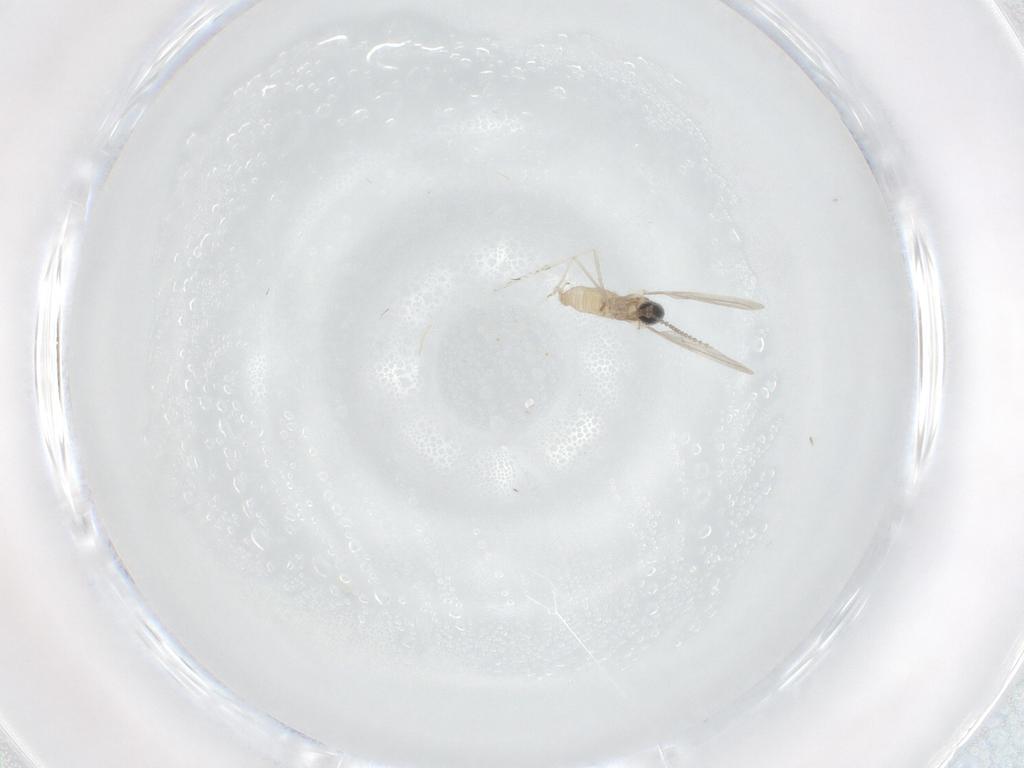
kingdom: Animalia
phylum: Arthropoda
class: Insecta
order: Diptera
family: Cecidomyiidae
